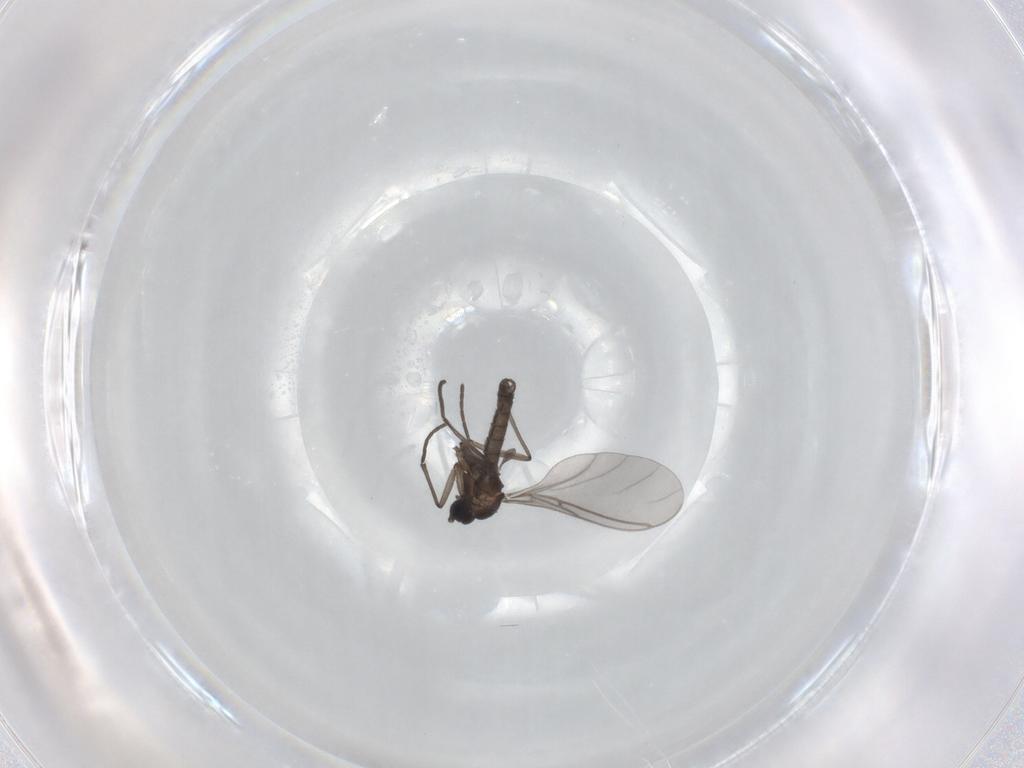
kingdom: Animalia
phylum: Arthropoda
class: Insecta
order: Diptera
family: Sciaridae
